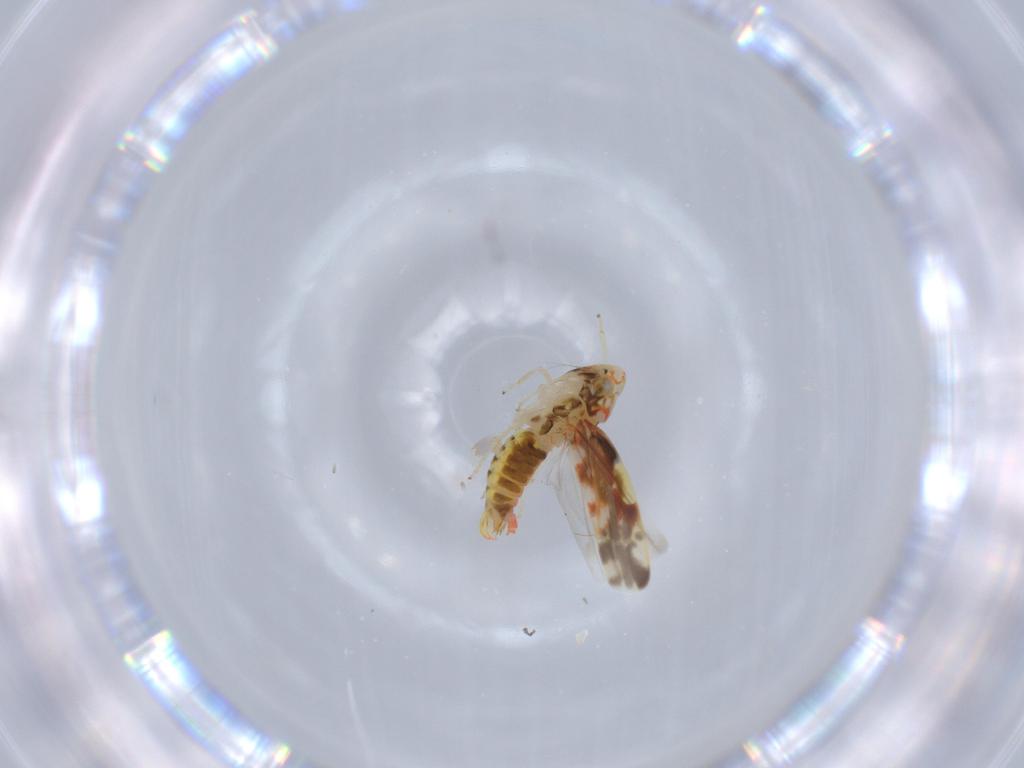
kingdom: Animalia
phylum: Arthropoda
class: Insecta
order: Hemiptera
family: Cicadellidae
